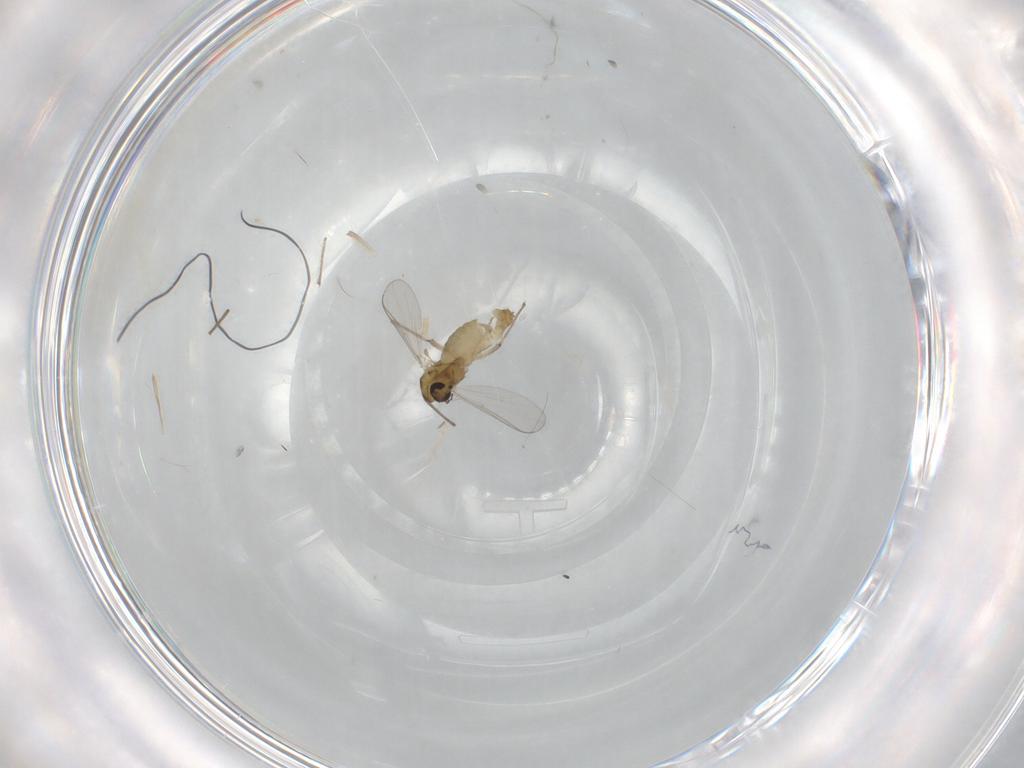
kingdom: Animalia
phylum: Arthropoda
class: Insecta
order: Diptera
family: Chironomidae
